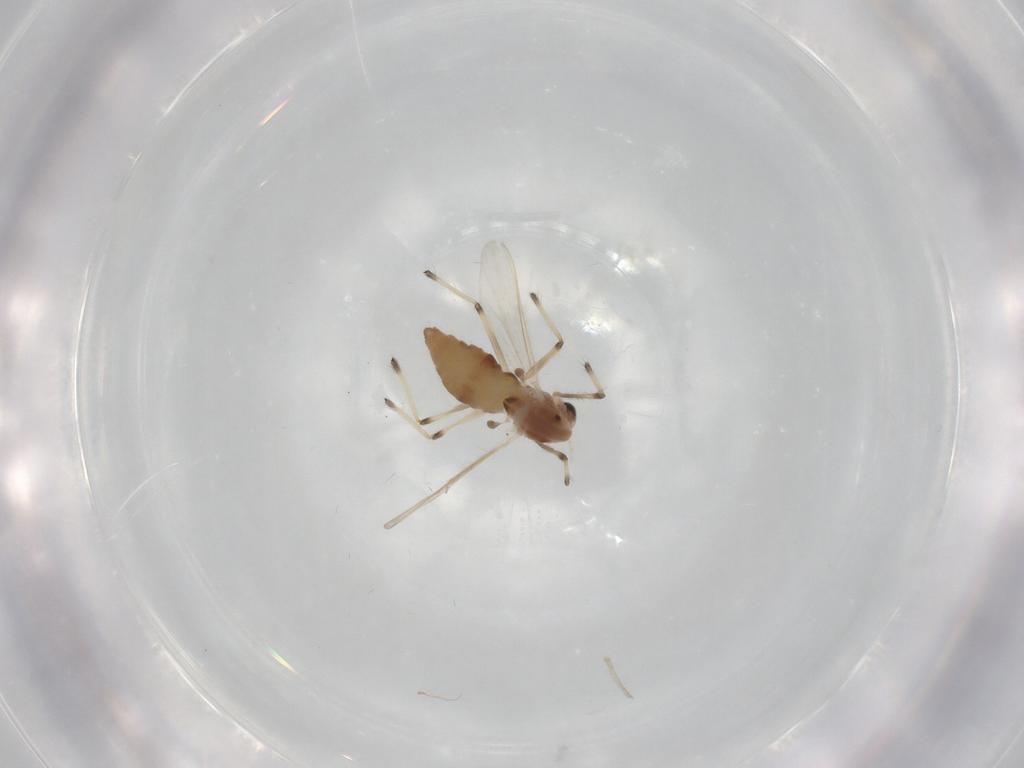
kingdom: Animalia
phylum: Arthropoda
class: Insecta
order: Diptera
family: Chironomidae
